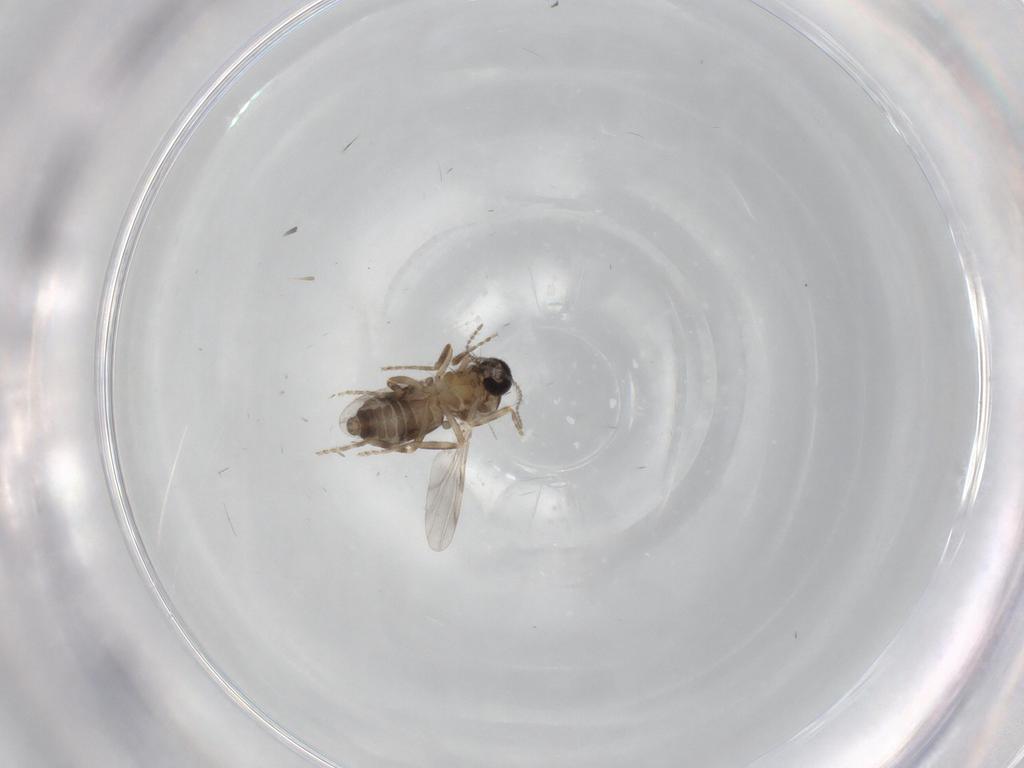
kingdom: Animalia
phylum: Arthropoda
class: Insecta
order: Diptera
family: Ceratopogonidae
